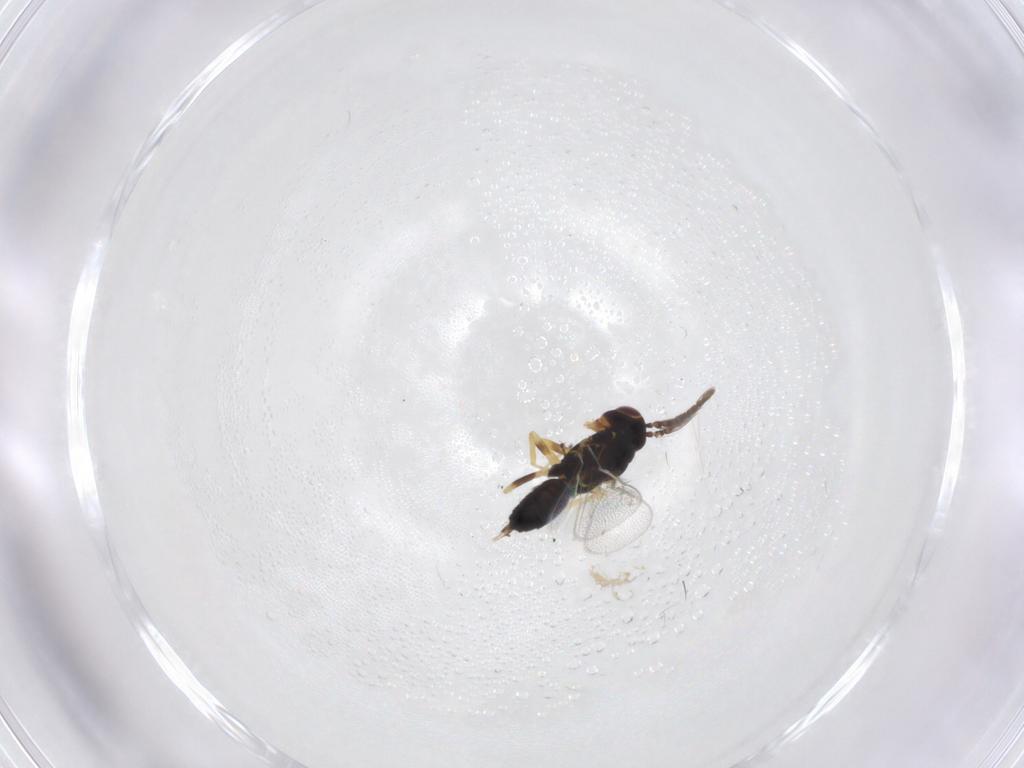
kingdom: Animalia
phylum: Arthropoda
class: Insecta
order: Hymenoptera
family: Eulophidae
